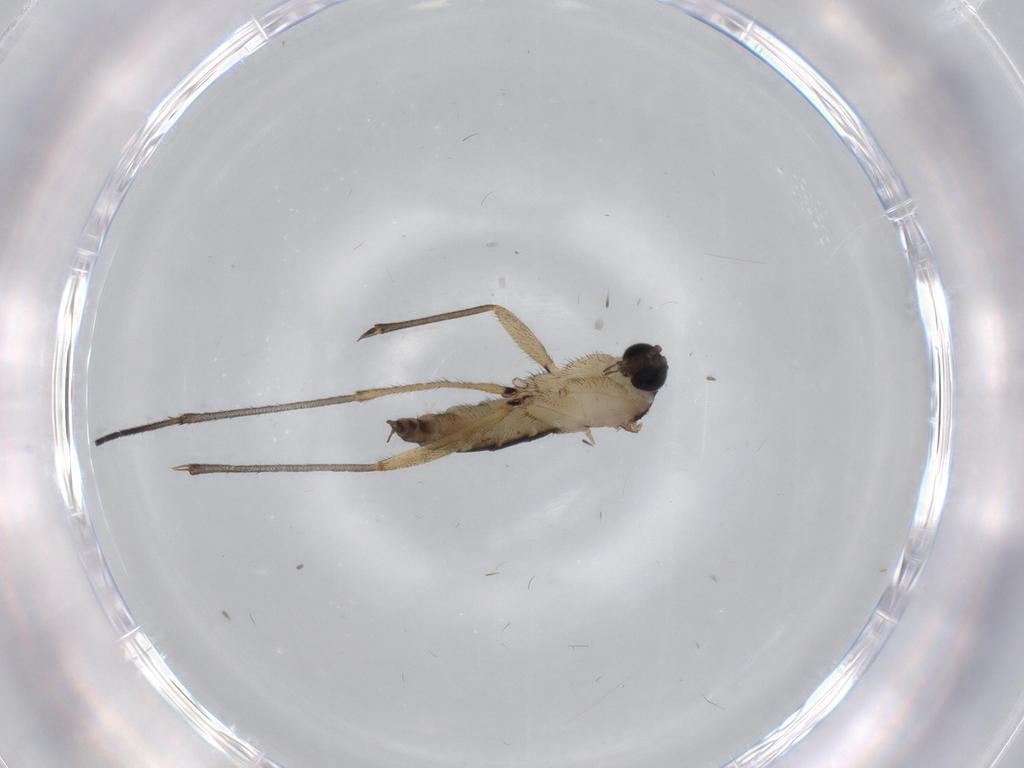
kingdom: Animalia
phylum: Arthropoda
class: Insecta
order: Diptera
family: Sciaridae
